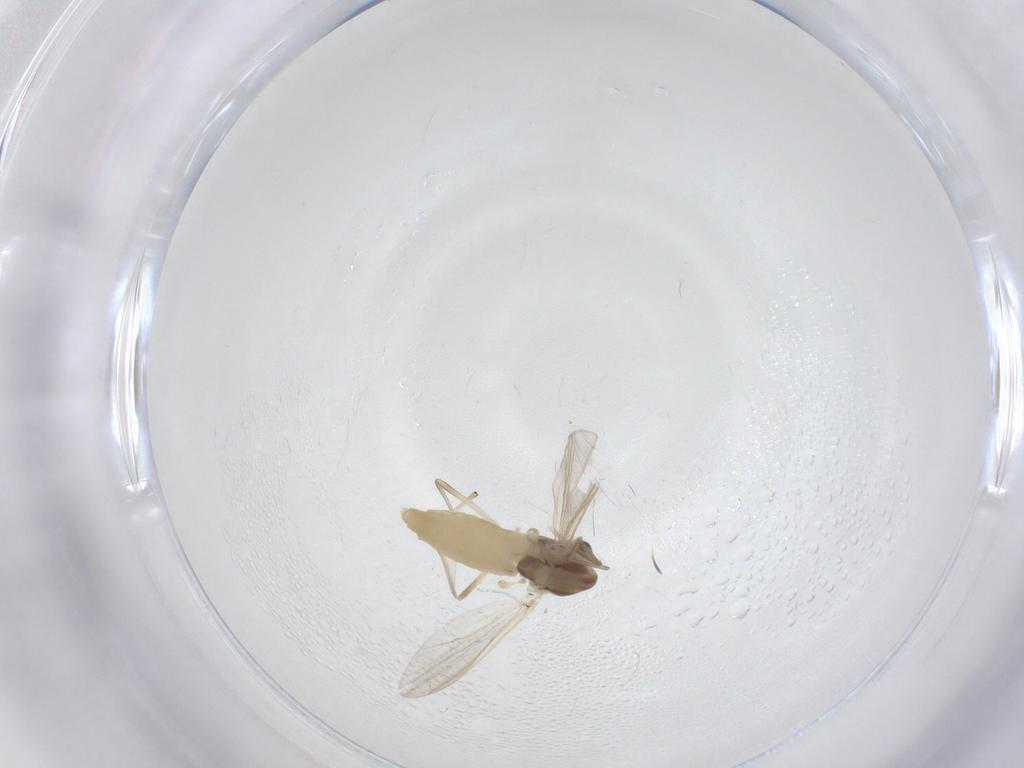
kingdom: Animalia
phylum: Arthropoda
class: Insecta
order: Diptera
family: Chironomidae
